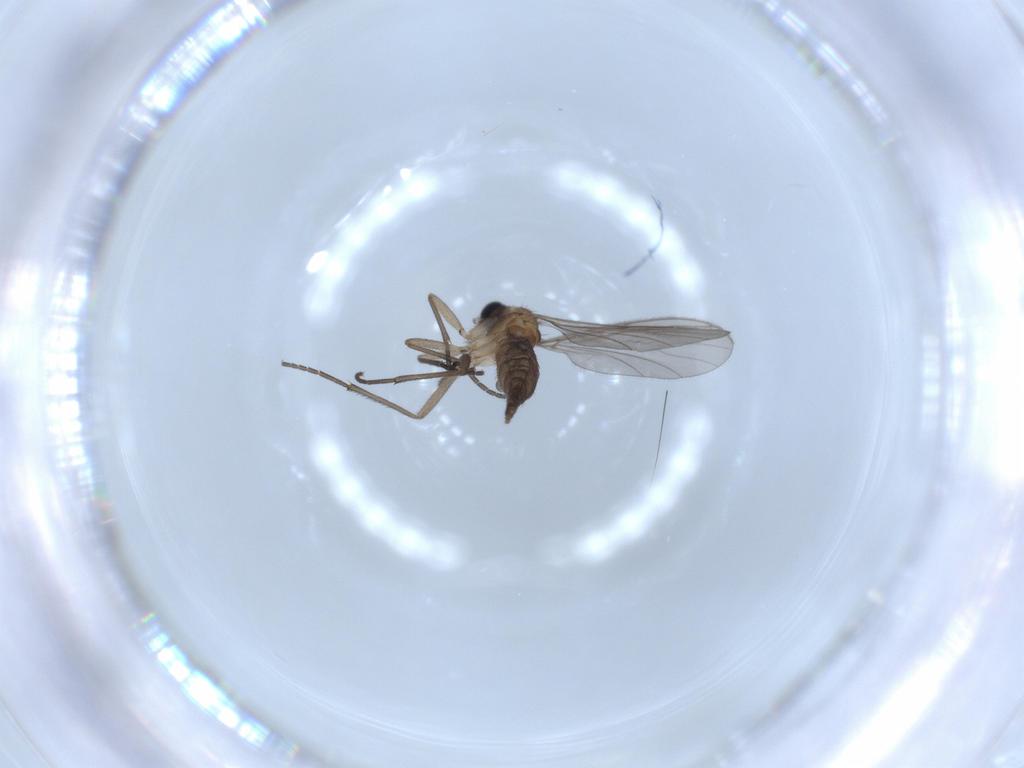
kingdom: Animalia
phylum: Arthropoda
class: Insecta
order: Diptera
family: Sciaridae
